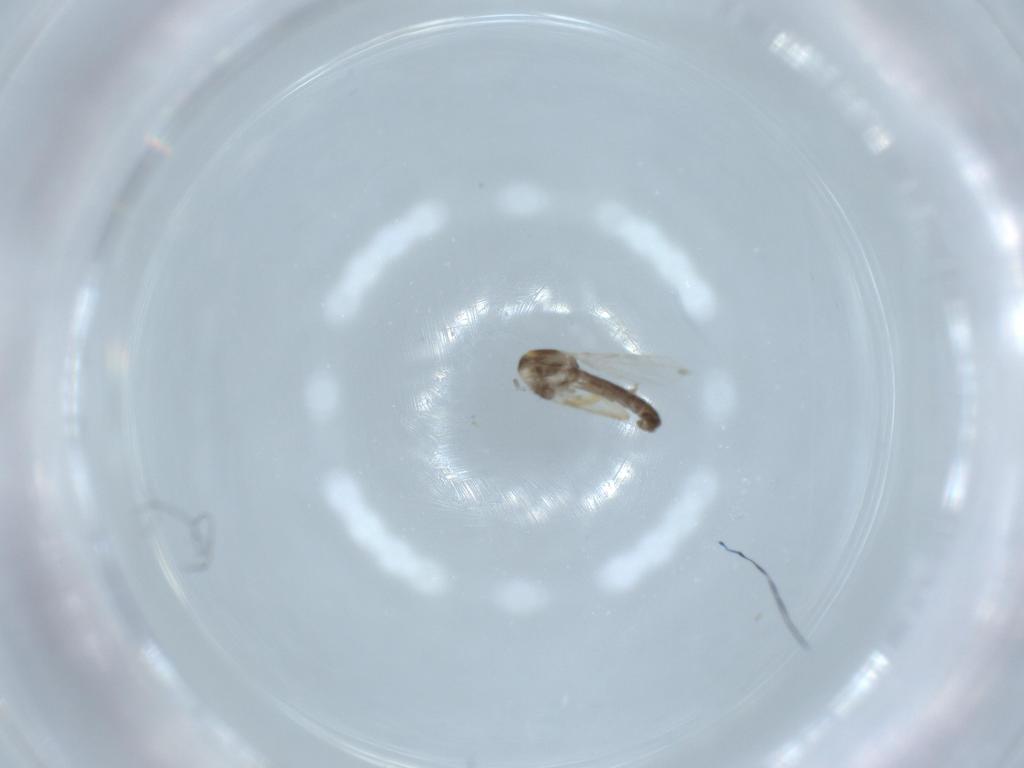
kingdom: Animalia
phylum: Arthropoda
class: Insecta
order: Diptera
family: Ceratopogonidae
